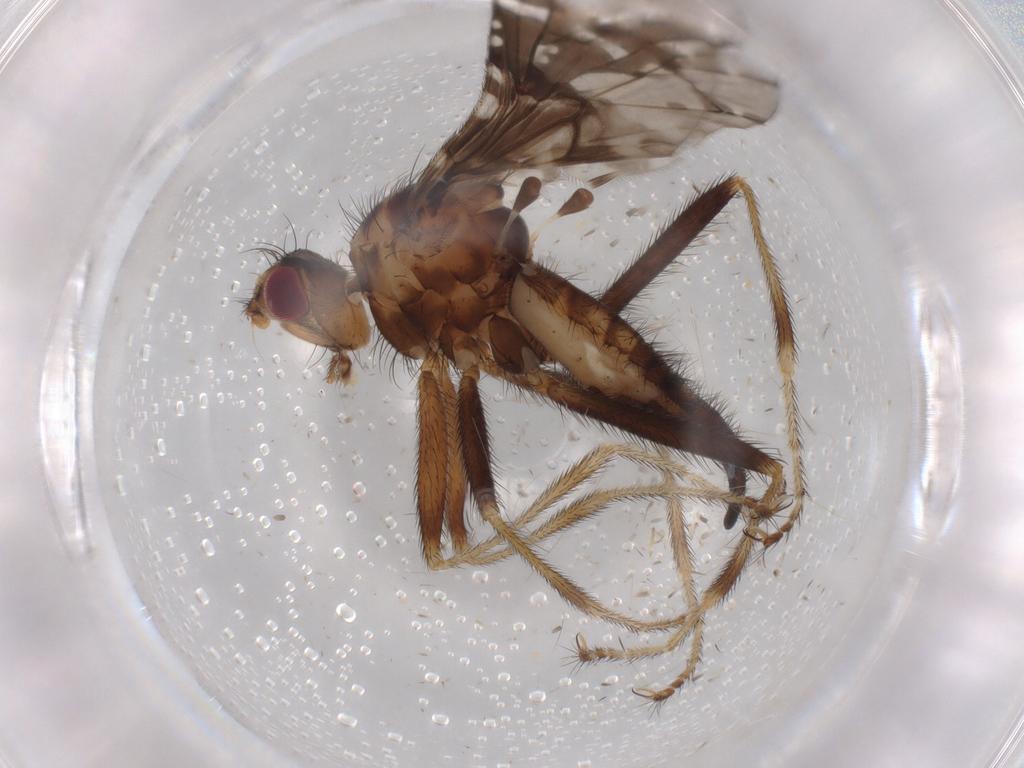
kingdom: Animalia
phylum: Arthropoda
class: Insecta
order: Diptera
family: Pyrgotidae
